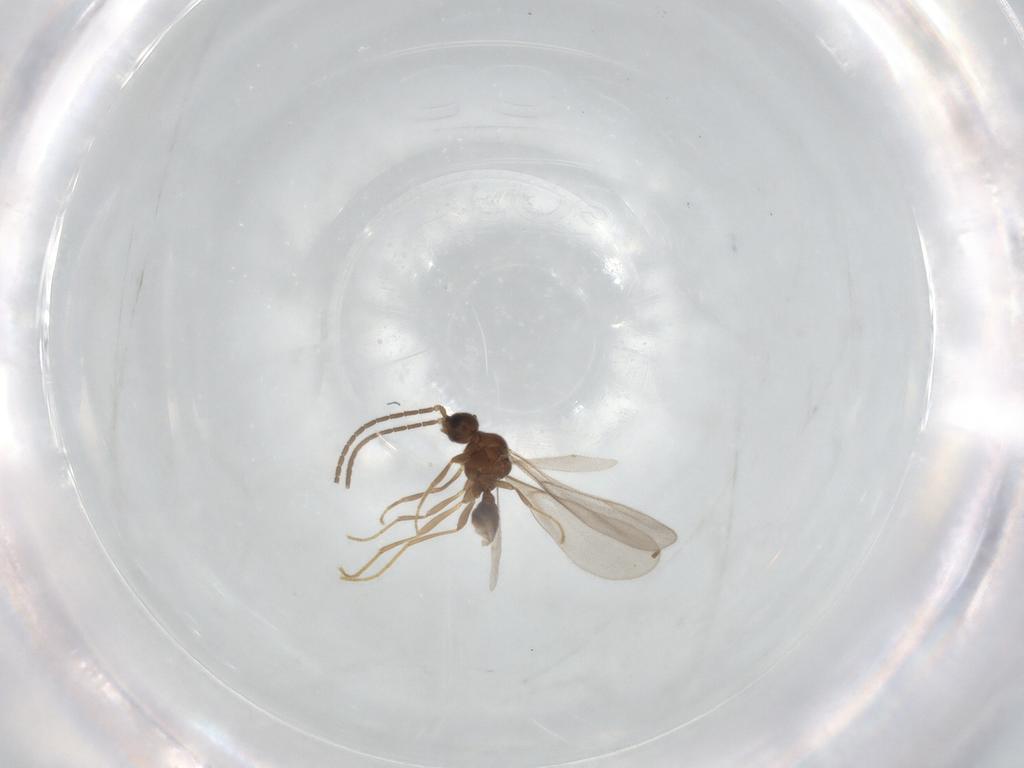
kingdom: Animalia
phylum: Arthropoda
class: Insecta
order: Hymenoptera
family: Formicidae
